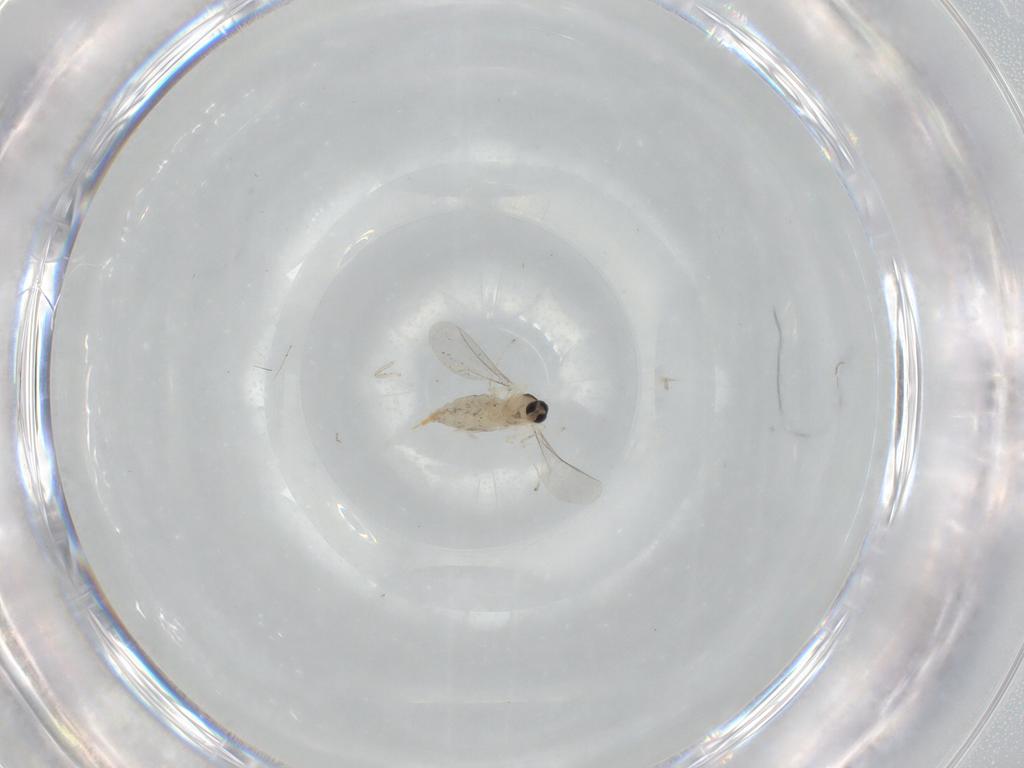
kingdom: Animalia
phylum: Arthropoda
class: Insecta
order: Diptera
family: Cecidomyiidae
